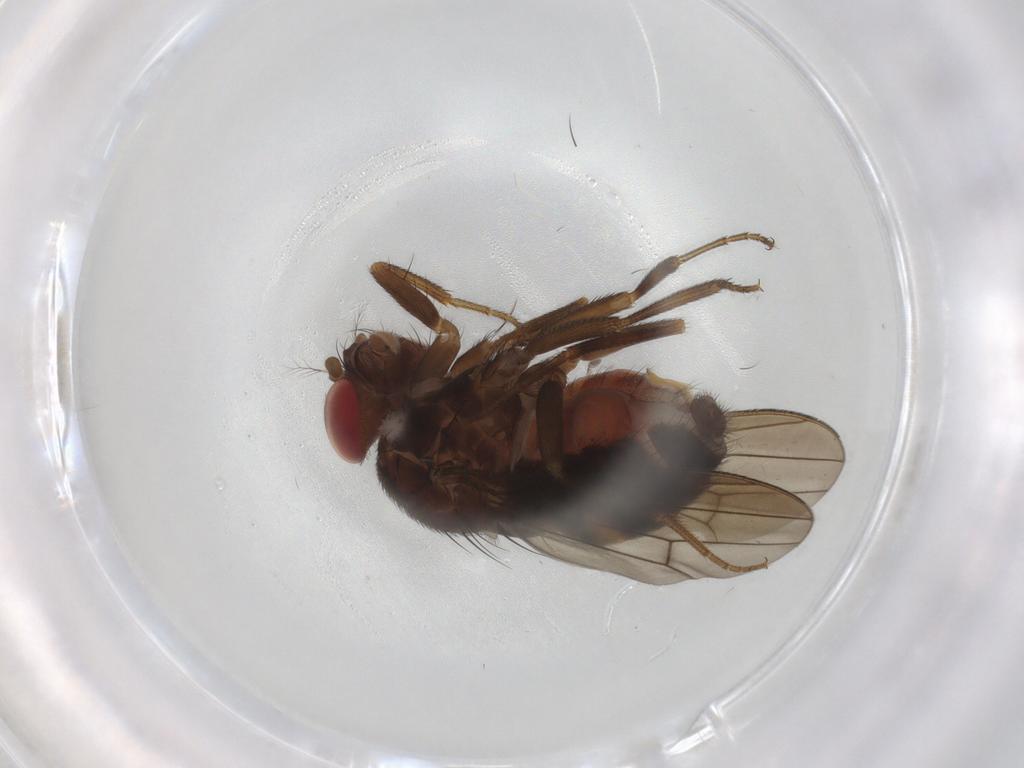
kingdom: Animalia
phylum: Arthropoda
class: Insecta
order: Diptera
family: Phoridae
